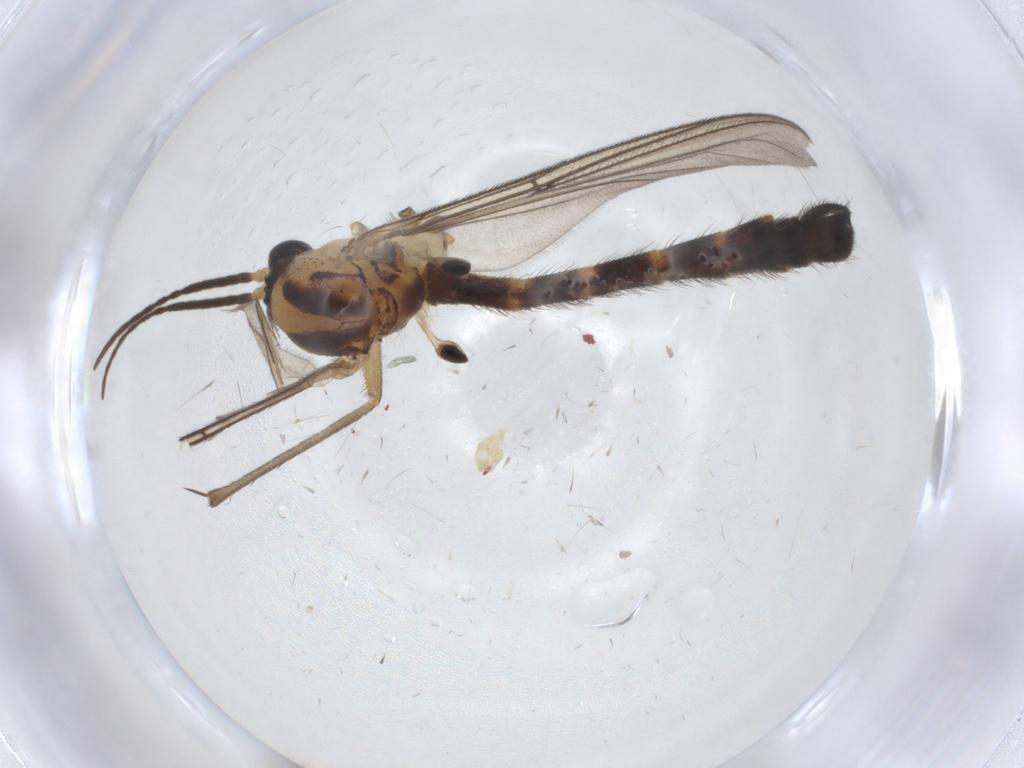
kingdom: Animalia
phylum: Arthropoda
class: Insecta
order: Diptera
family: Mycetophilidae
